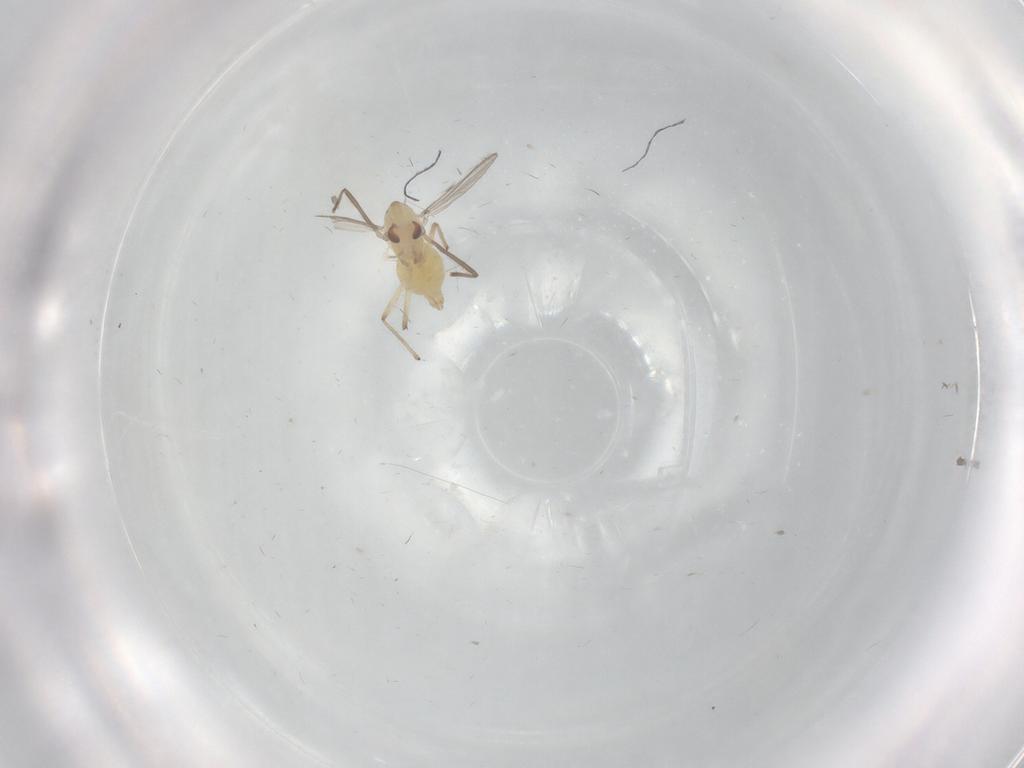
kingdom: Animalia
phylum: Arthropoda
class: Insecta
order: Diptera
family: Chironomidae
